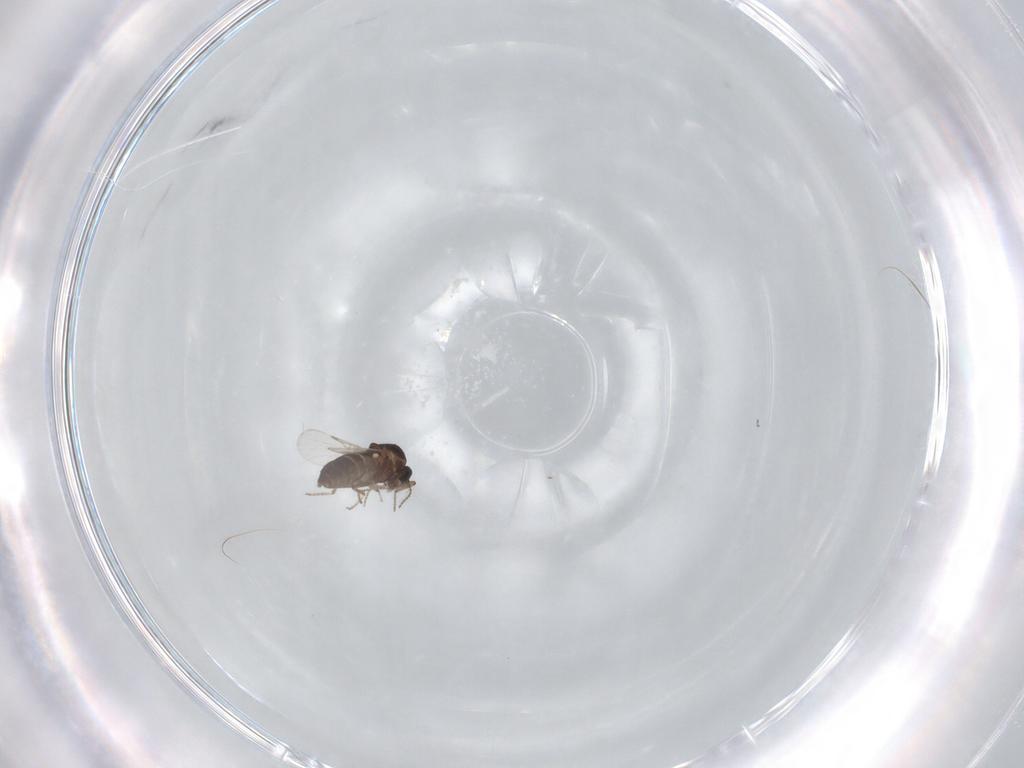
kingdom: Animalia
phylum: Arthropoda
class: Insecta
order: Diptera
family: Ceratopogonidae
